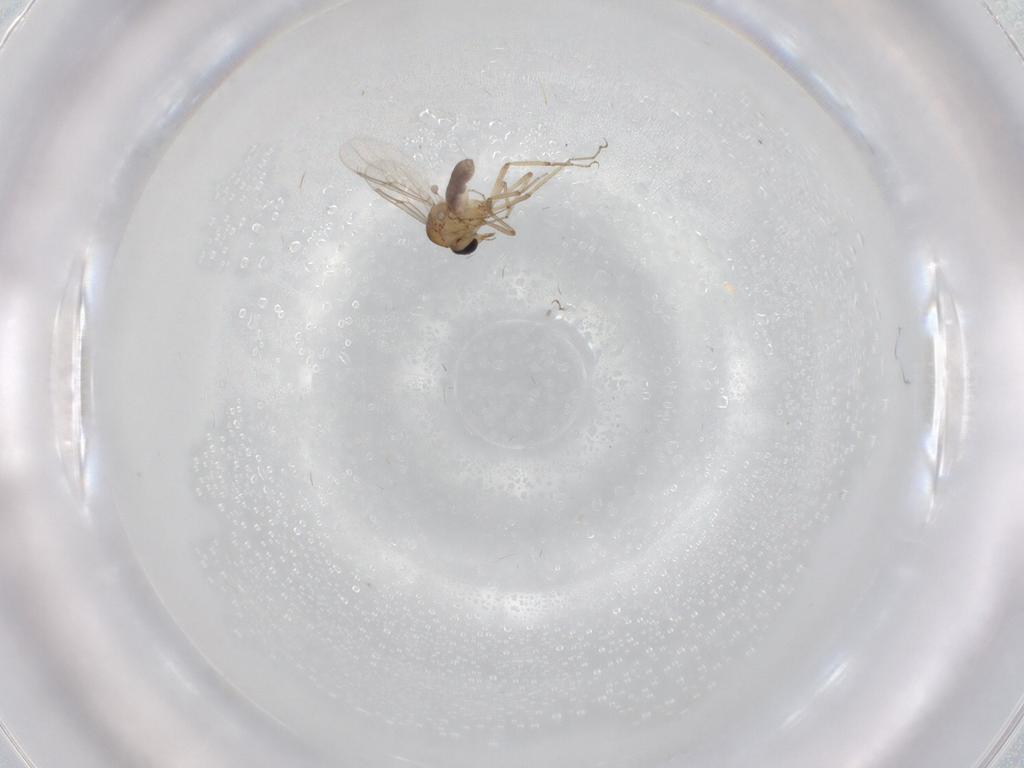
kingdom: Animalia
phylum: Arthropoda
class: Insecta
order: Diptera
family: Ceratopogonidae
